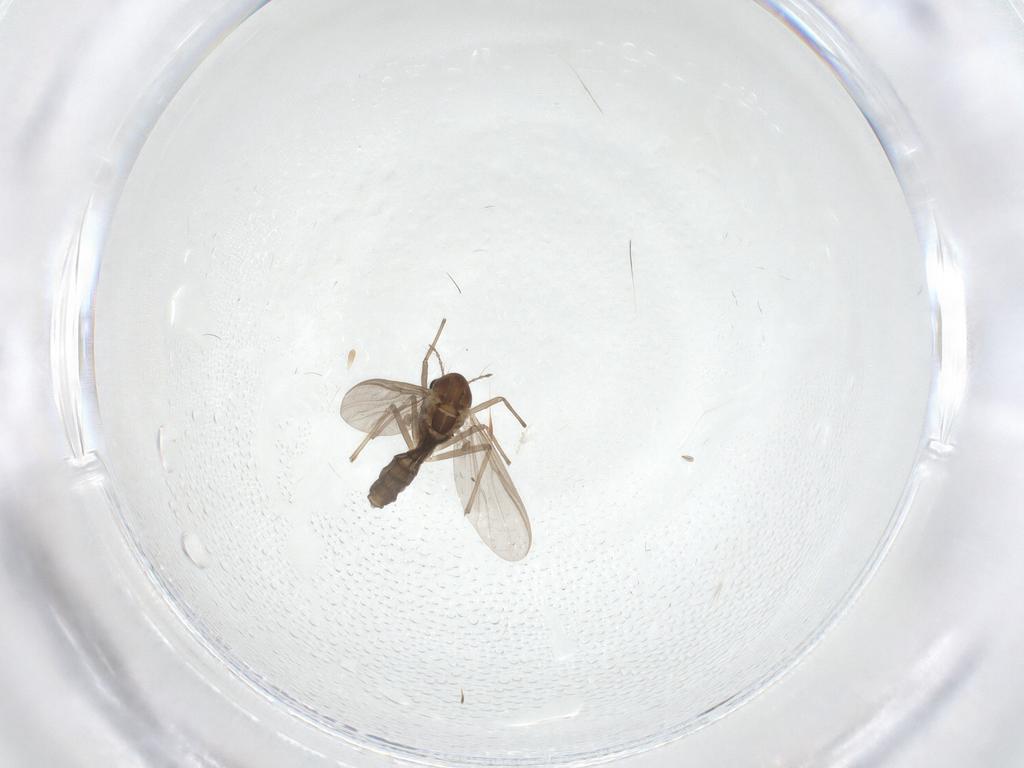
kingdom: Animalia
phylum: Arthropoda
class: Insecta
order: Diptera
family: Chironomidae
